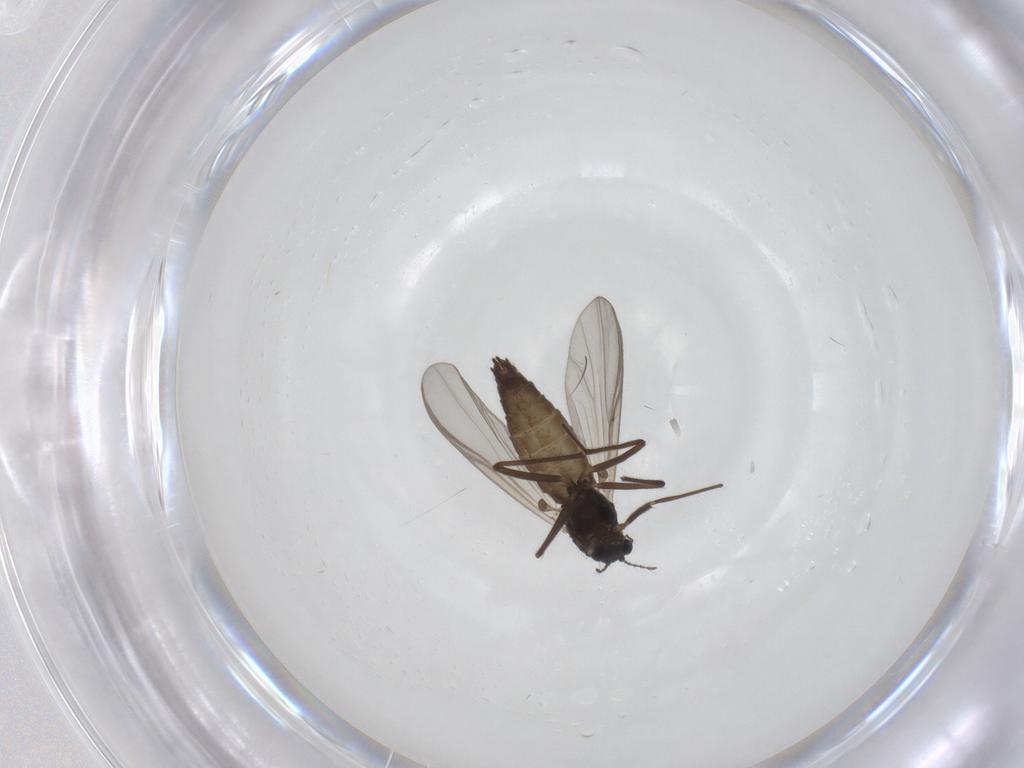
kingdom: Animalia
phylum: Arthropoda
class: Insecta
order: Diptera
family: Chironomidae
